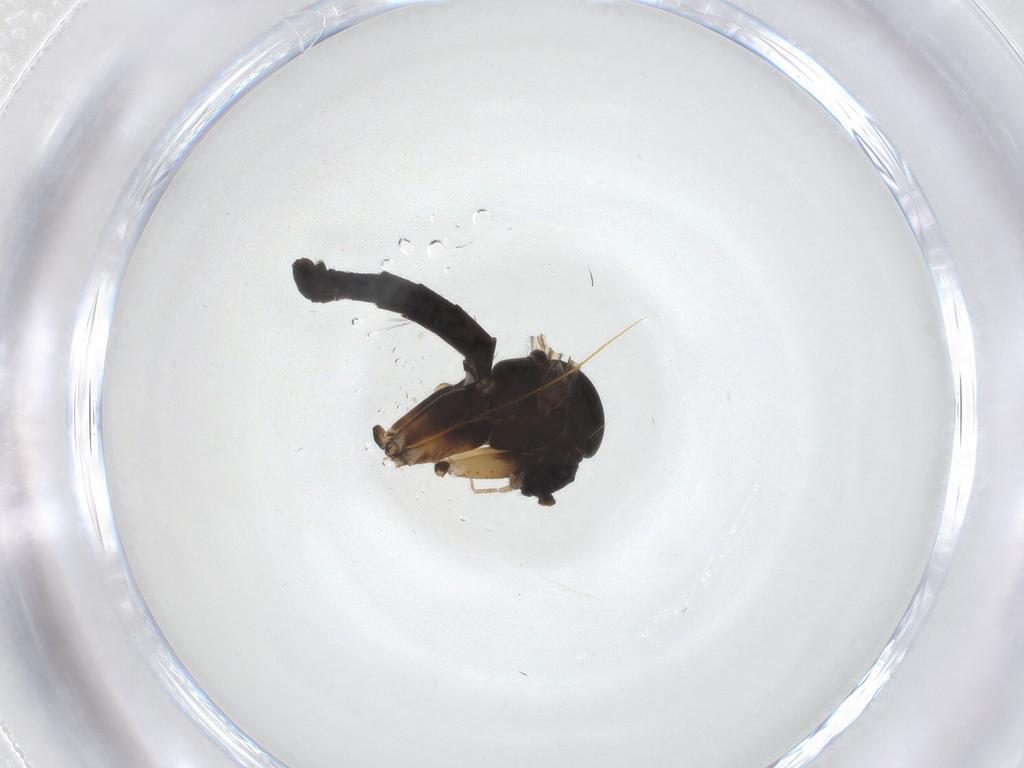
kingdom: Animalia
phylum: Arthropoda
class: Insecta
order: Diptera
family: Mycetophilidae
